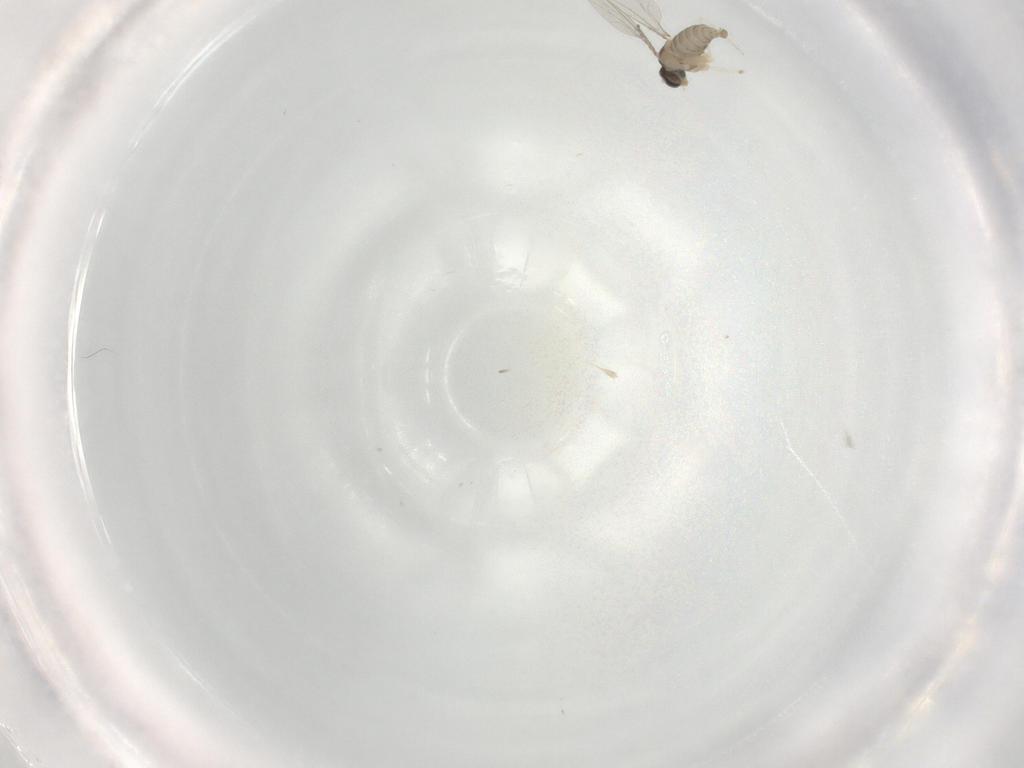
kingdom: Animalia
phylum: Arthropoda
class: Insecta
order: Diptera
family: Cecidomyiidae
